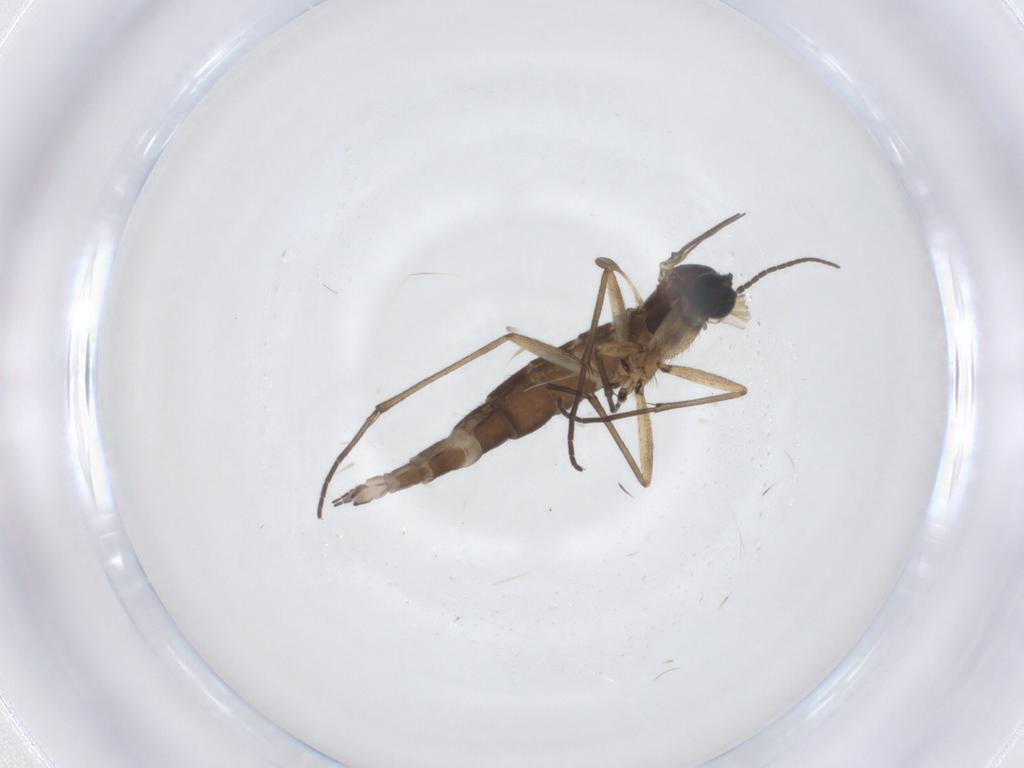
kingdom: Animalia
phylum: Arthropoda
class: Insecta
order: Diptera
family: Sciaridae
